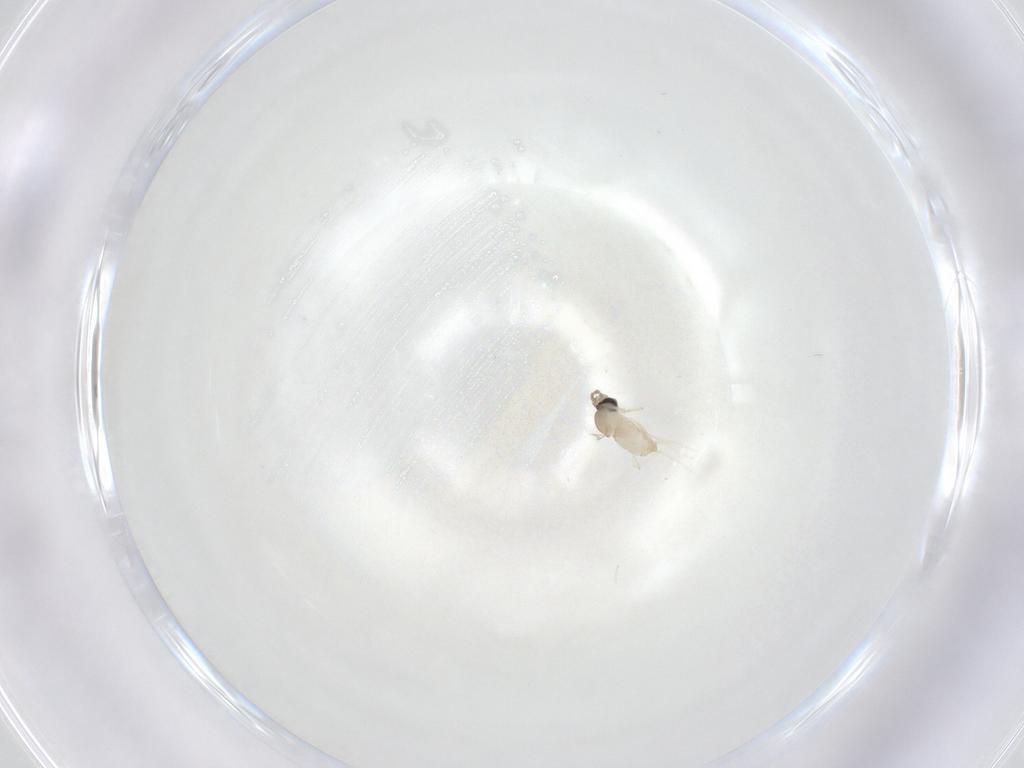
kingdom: Animalia
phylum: Arthropoda
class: Insecta
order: Diptera
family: Cecidomyiidae
